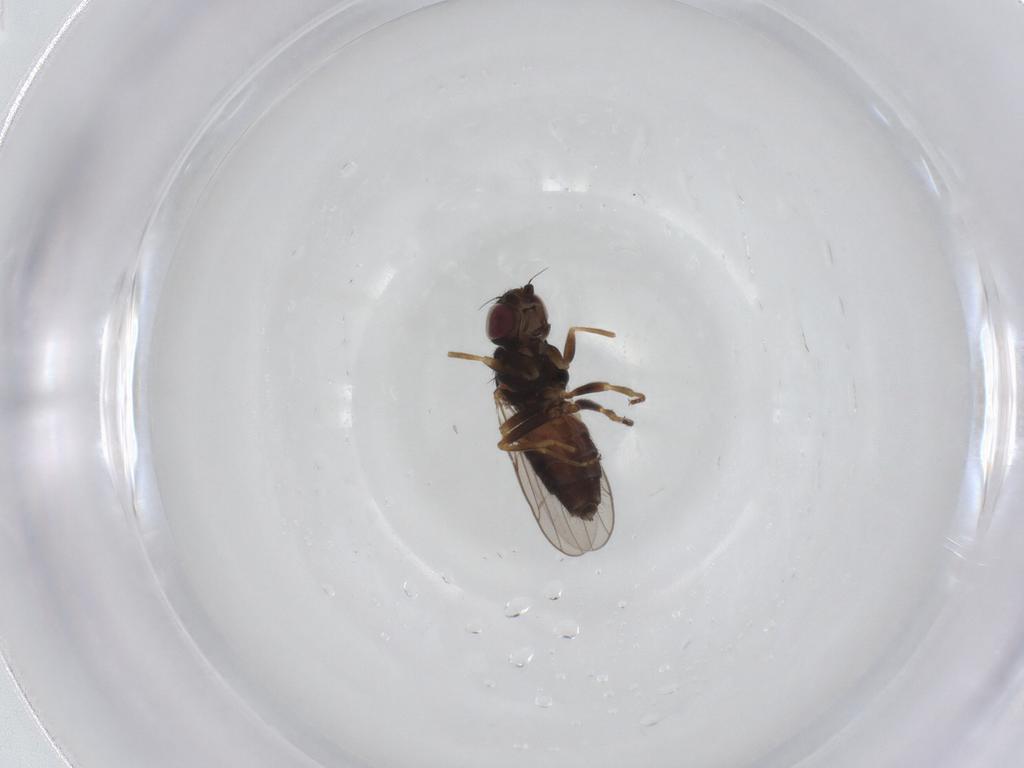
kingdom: Animalia
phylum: Arthropoda
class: Insecta
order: Diptera
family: Chloropidae
